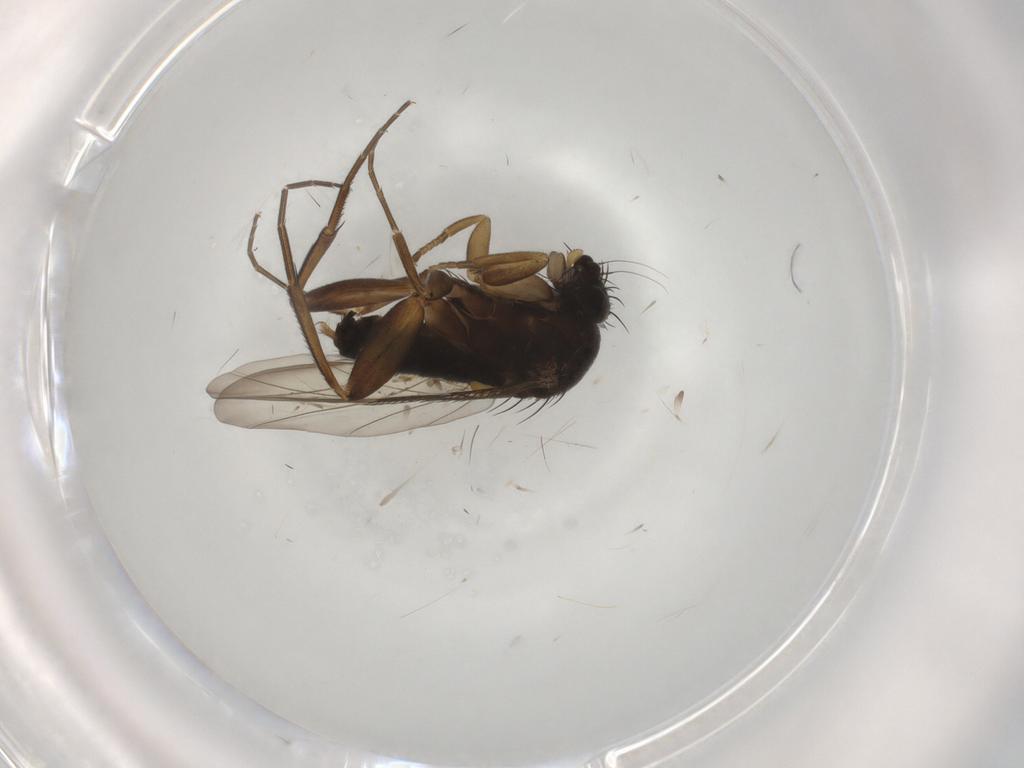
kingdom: Animalia
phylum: Arthropoda
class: Insecta
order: Diptera
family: Phoridae
